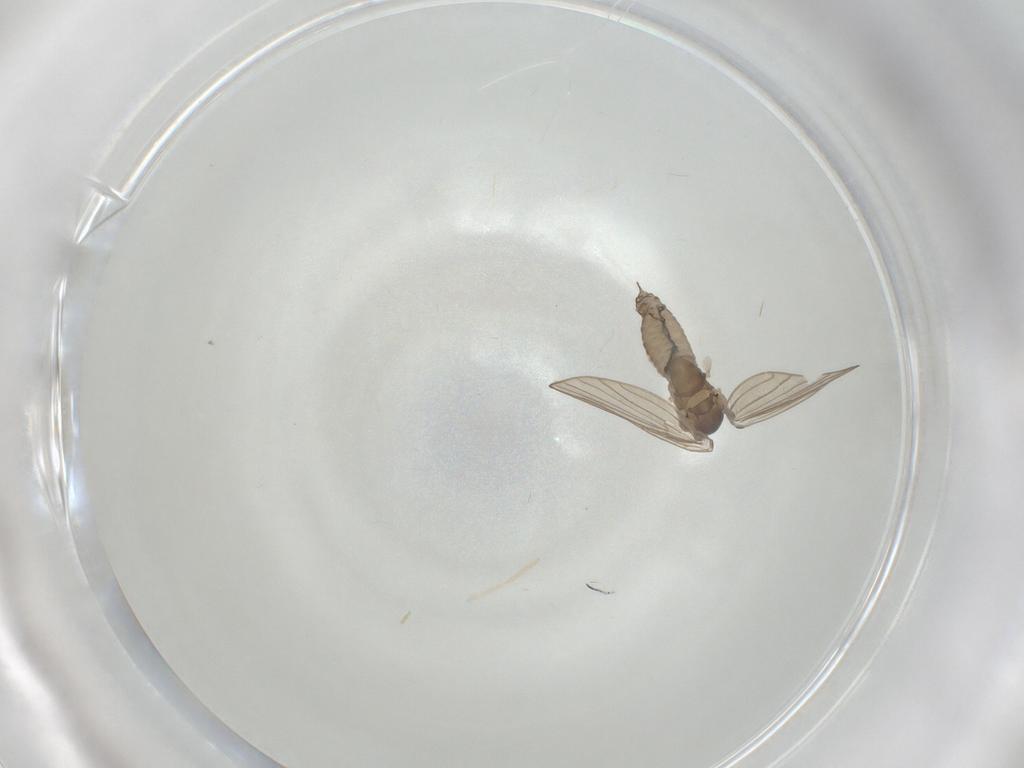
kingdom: Animalia
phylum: Arthropoda
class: Insecta
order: Diptera
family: Psychodidae
